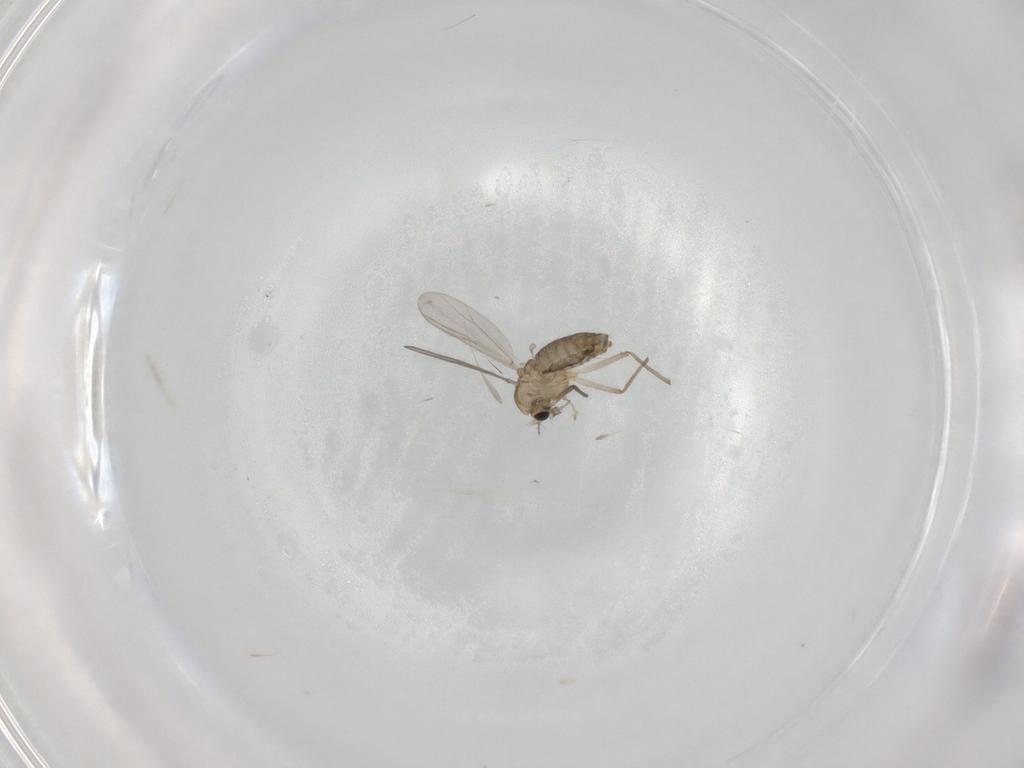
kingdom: Animalia
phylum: Arthropoda
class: Insecta
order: Diptera
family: Chironomidae
